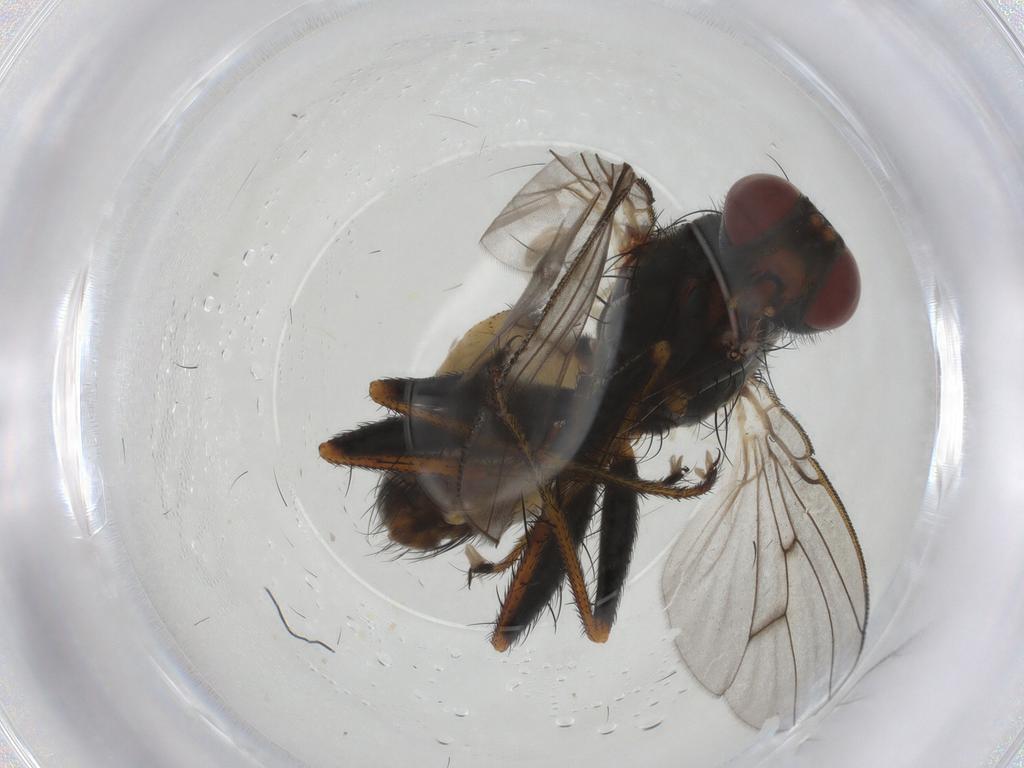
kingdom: Animalia
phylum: Arthropoda
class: Insecta
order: Diptera
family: Muscidae
